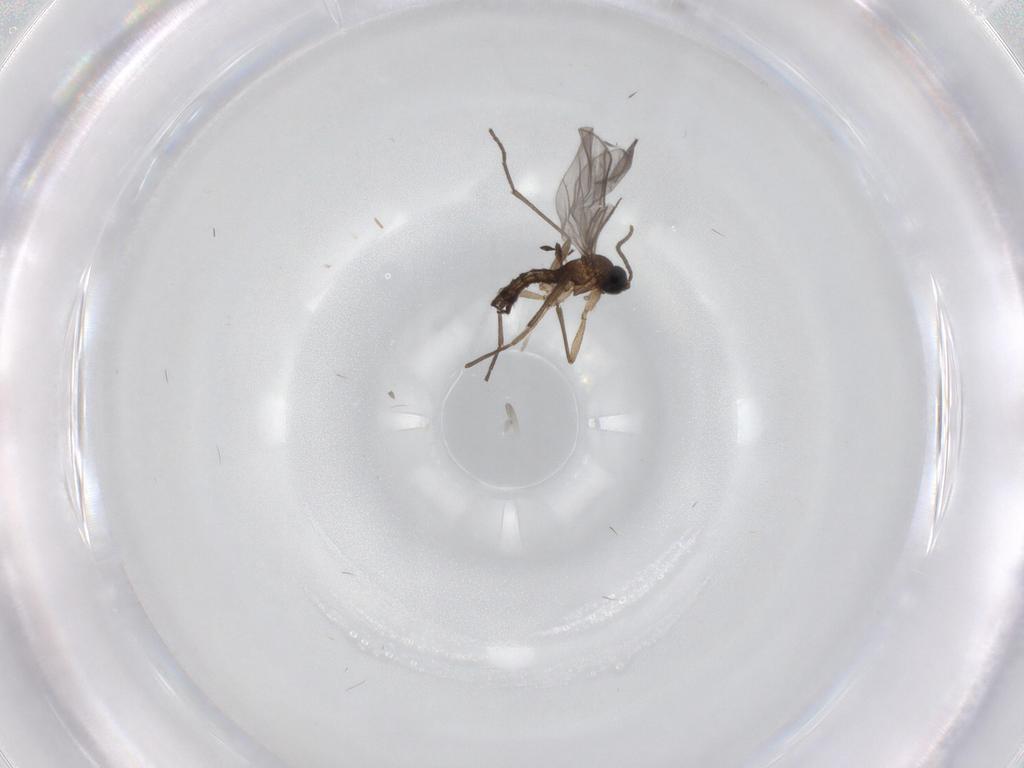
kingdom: Animalia
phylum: Arthropoda
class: Insecta
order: Diptera
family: Sciaridae
